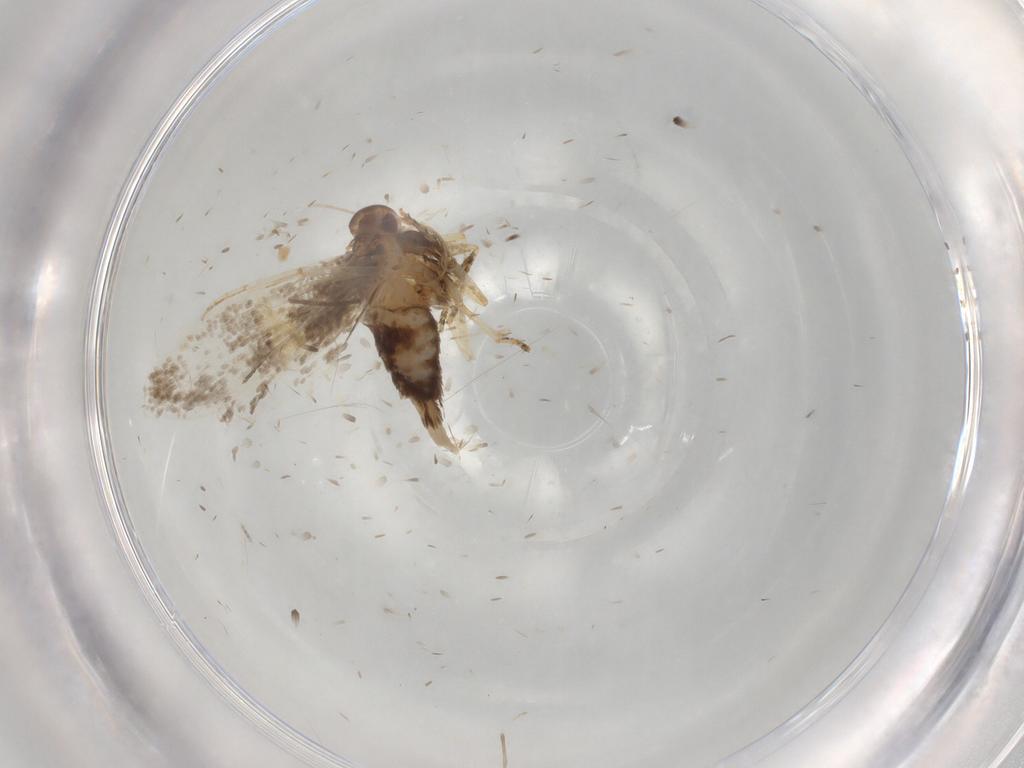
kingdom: Animalia
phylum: Arthropoda
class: Insecta
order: Lepidoptera
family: Oecophoridae
